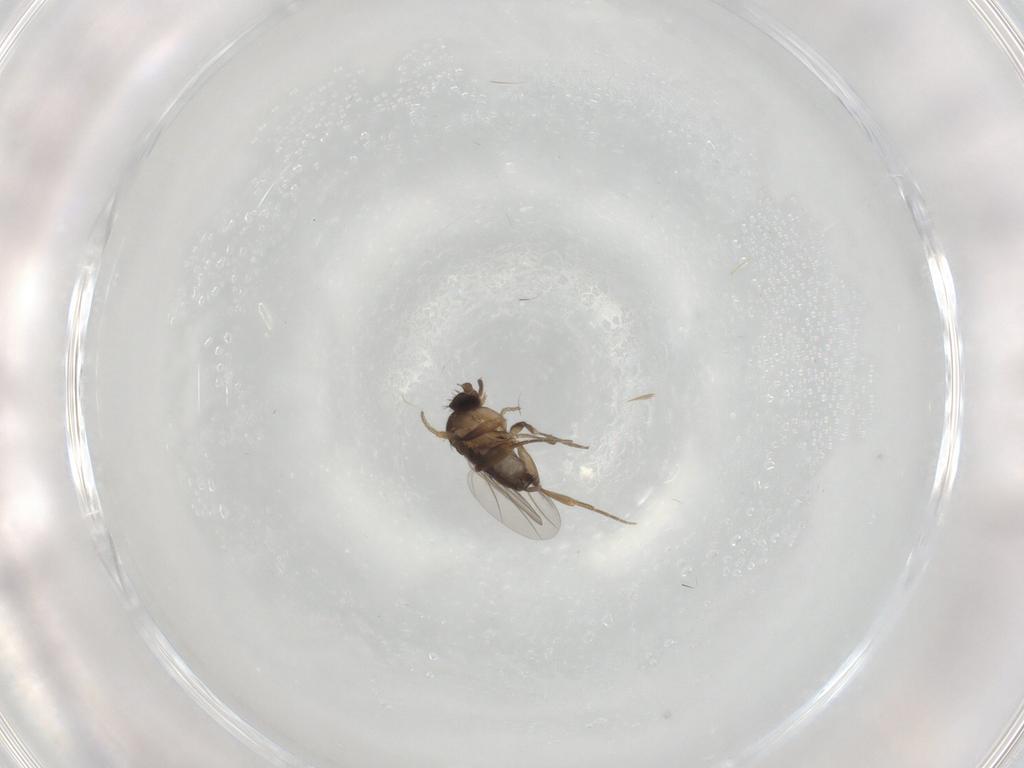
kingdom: Animalia
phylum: Arthropoda
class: Insecta
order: Diptera
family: Phoridae
